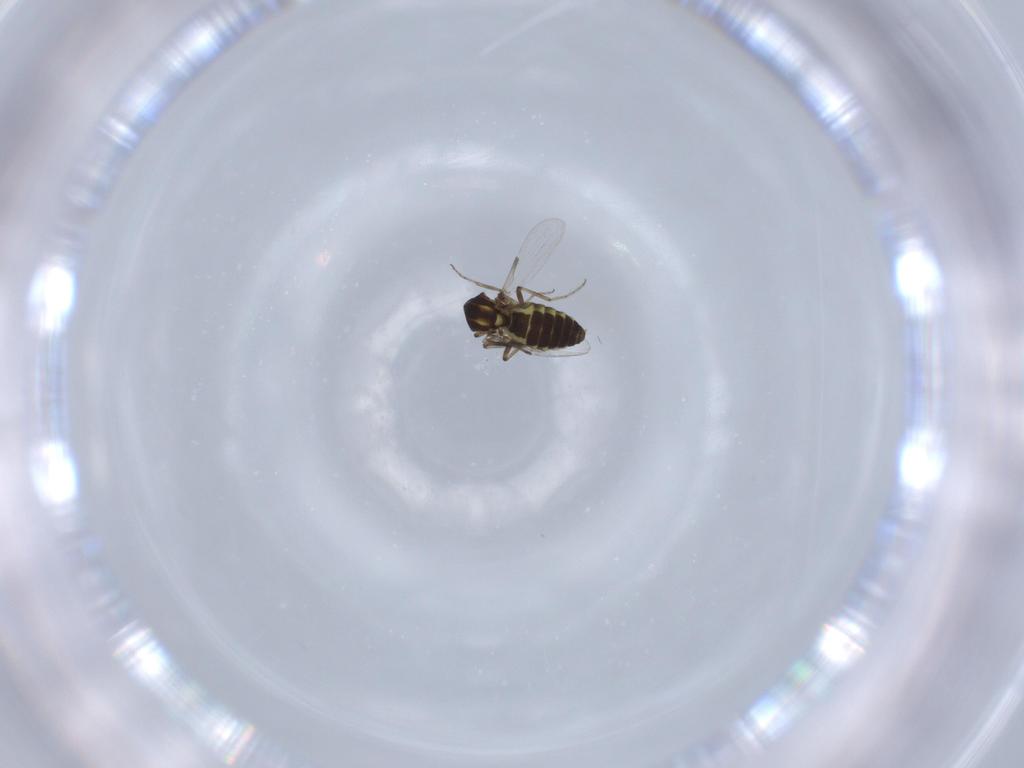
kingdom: Animalia
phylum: Arthropoda
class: Insecta
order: Diptera
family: Ceratopogonidae
